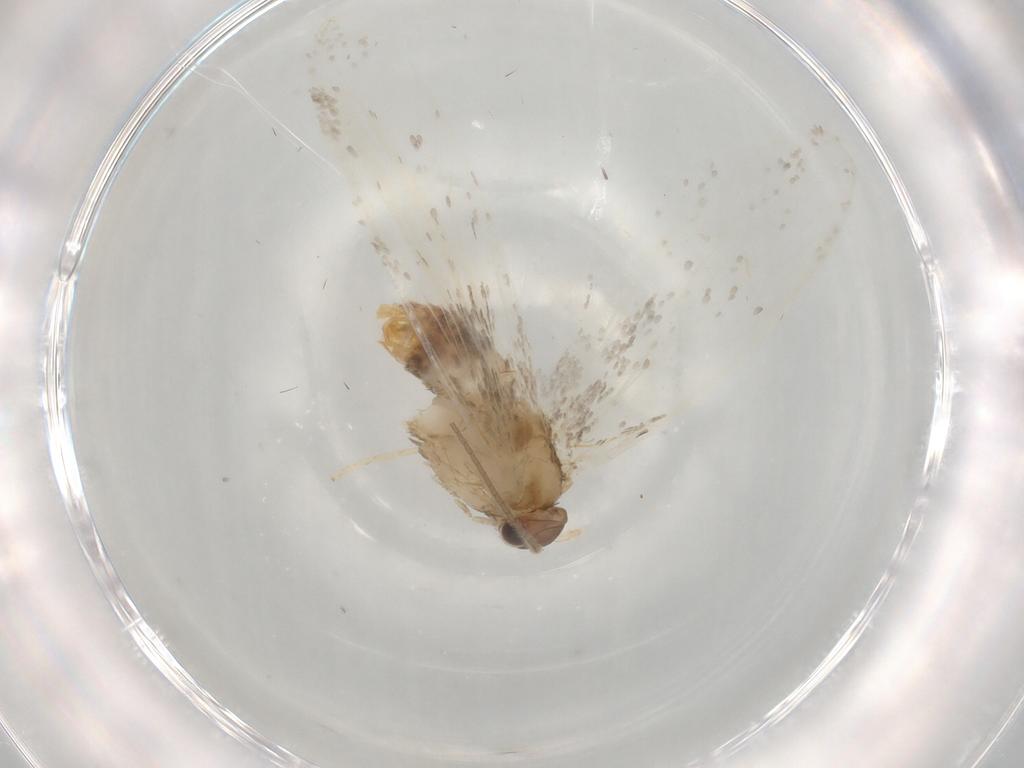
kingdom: Animalia
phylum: Arthropoda
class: Insecta
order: Lepidoptera
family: Dryadaulidae
